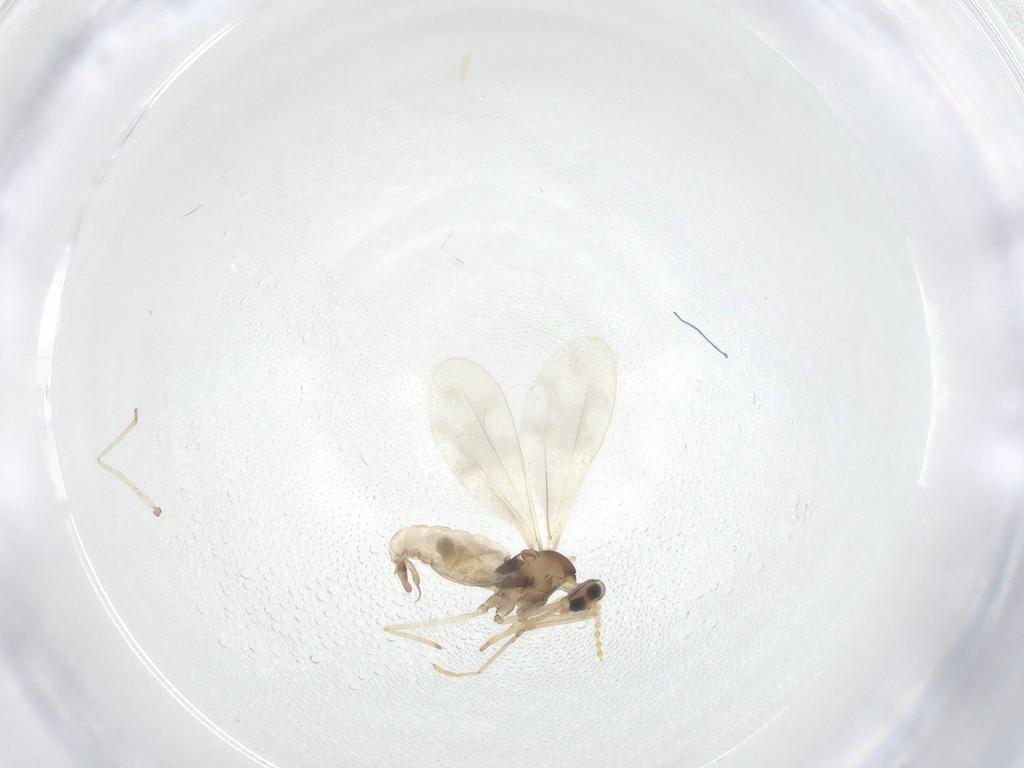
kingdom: Animalia
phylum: Arthropoda
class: Insecta
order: Diptera
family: Cecidomyiidae
